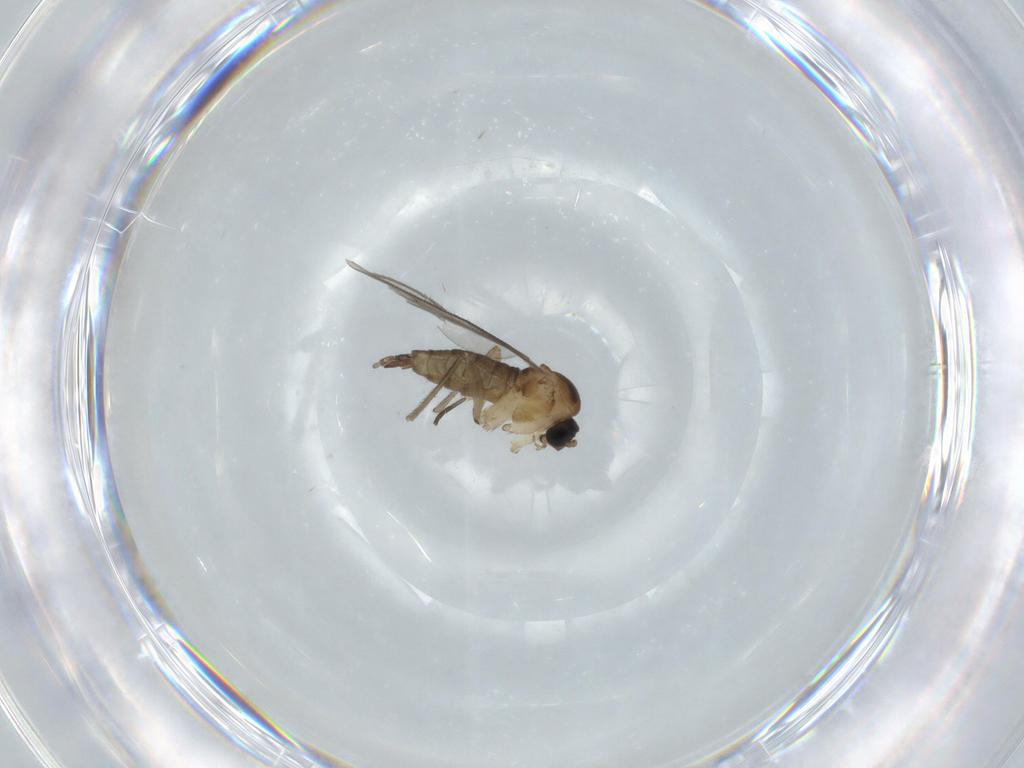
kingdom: Animalia
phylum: Arthropoda
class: Insecta
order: Diptera
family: Sciaridae
